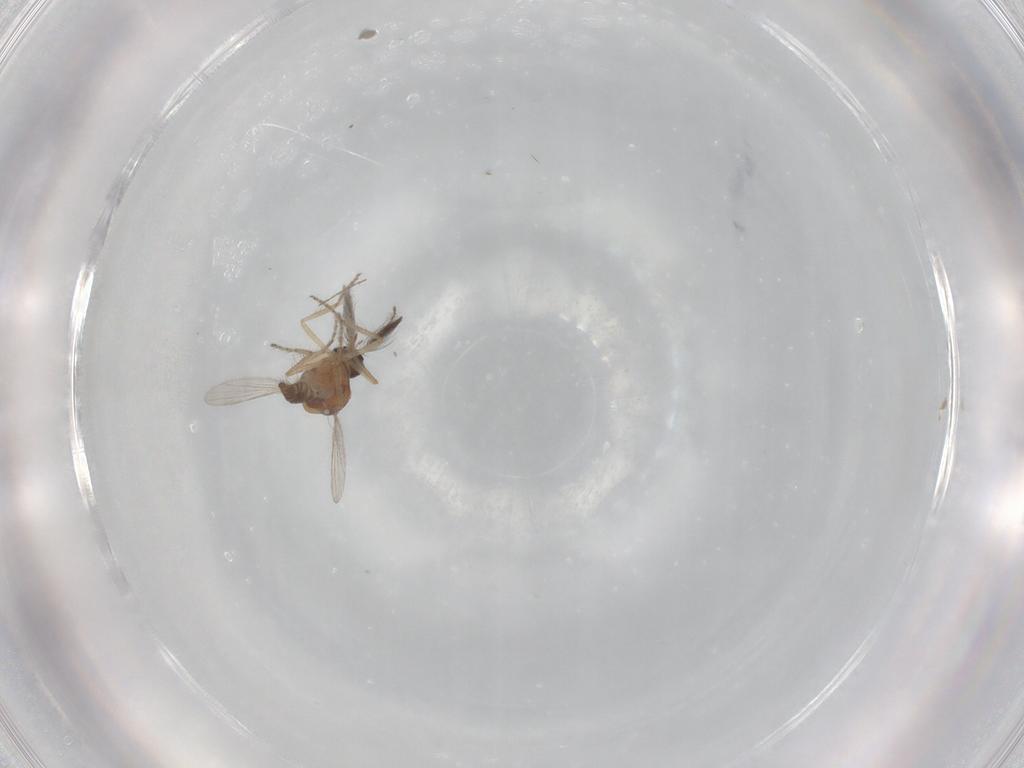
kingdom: Animalia
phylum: Arthropoda
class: Insecta
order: Diptera
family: Ceratopogonidae
